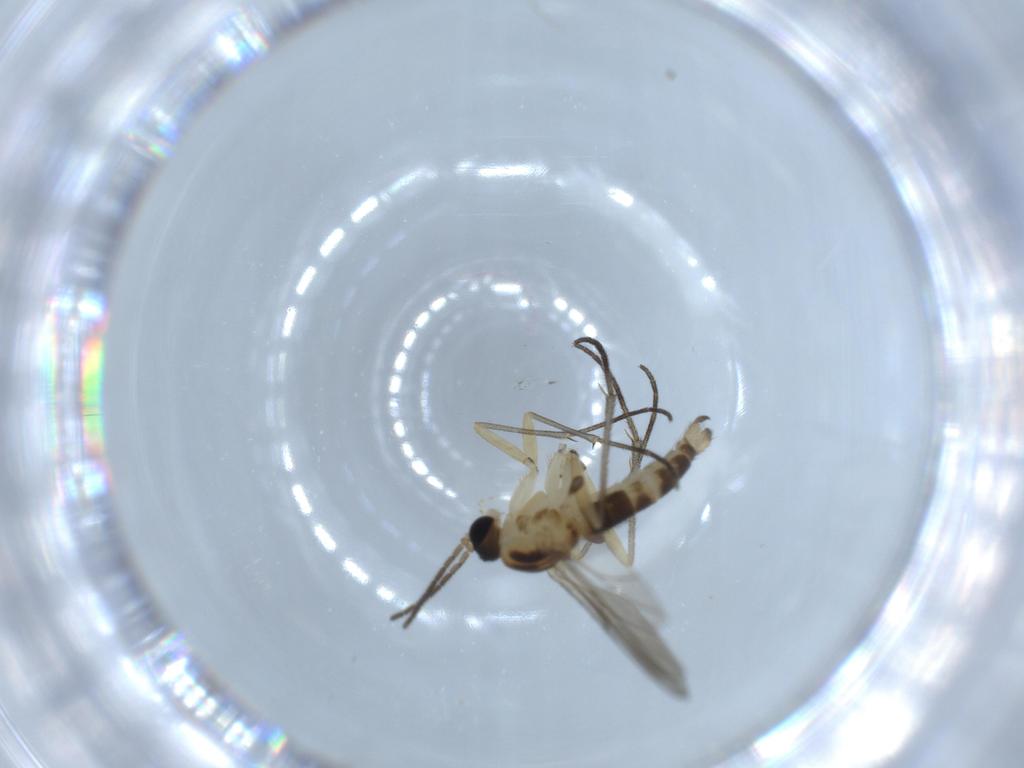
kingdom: Animalia
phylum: Arthropoda
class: Insecta
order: Diptera
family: Sciaridae
